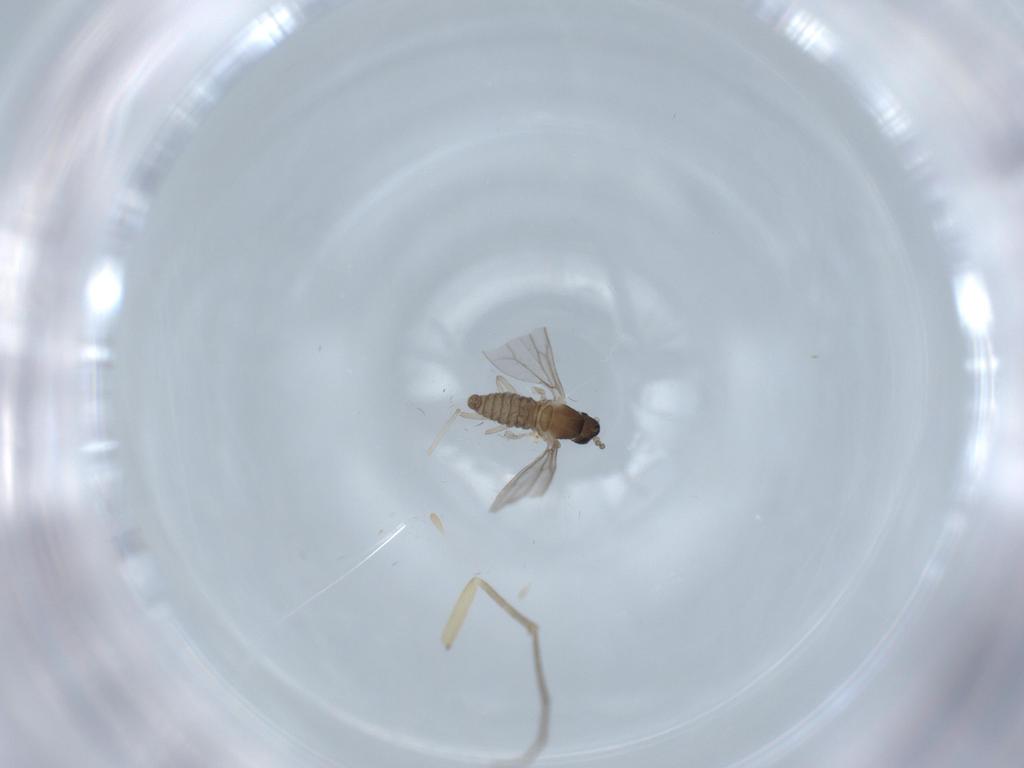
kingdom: Animalia
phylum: Arthropoda
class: Insecta
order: Diptera
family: Cecidomyiidae
